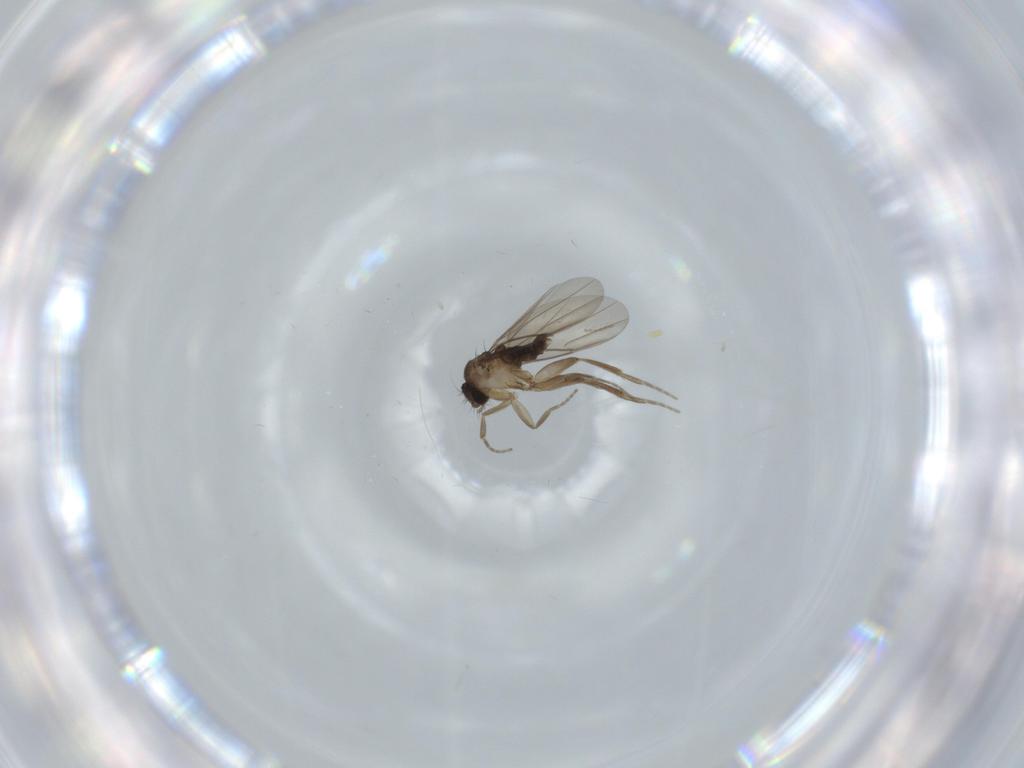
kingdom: Animalia
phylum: Arthropoda
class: Insecta
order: Diptera
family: Phoridae
